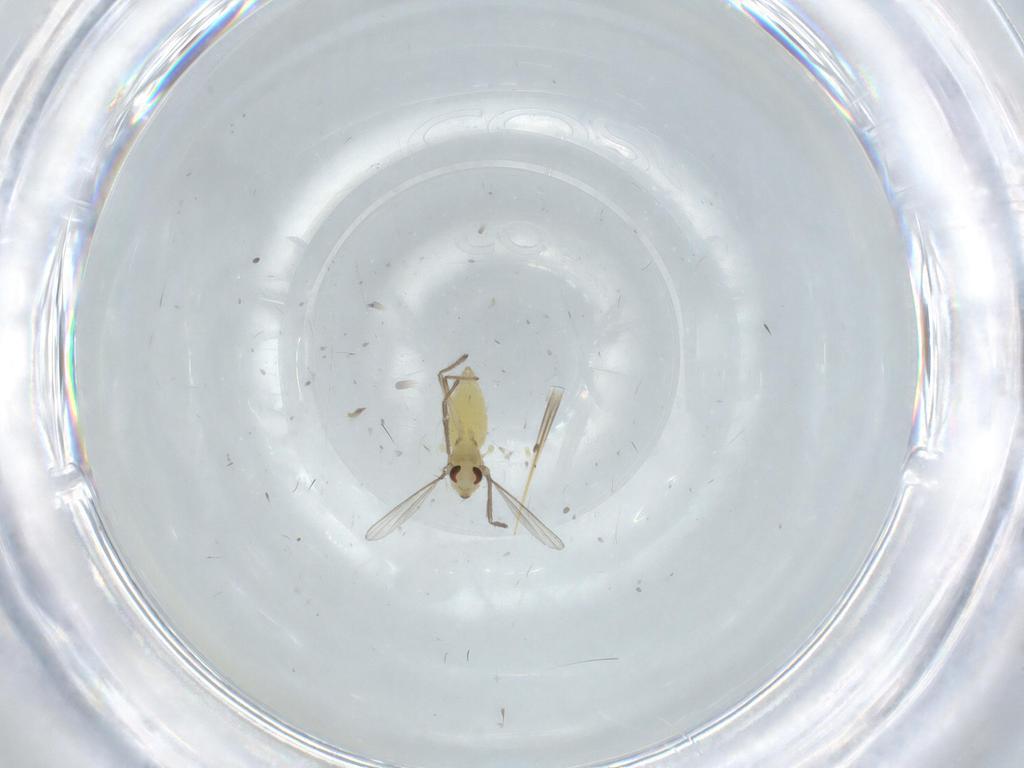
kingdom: Animalia
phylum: Arthropoda
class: Insecta
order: Diptera
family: Chironomidae
